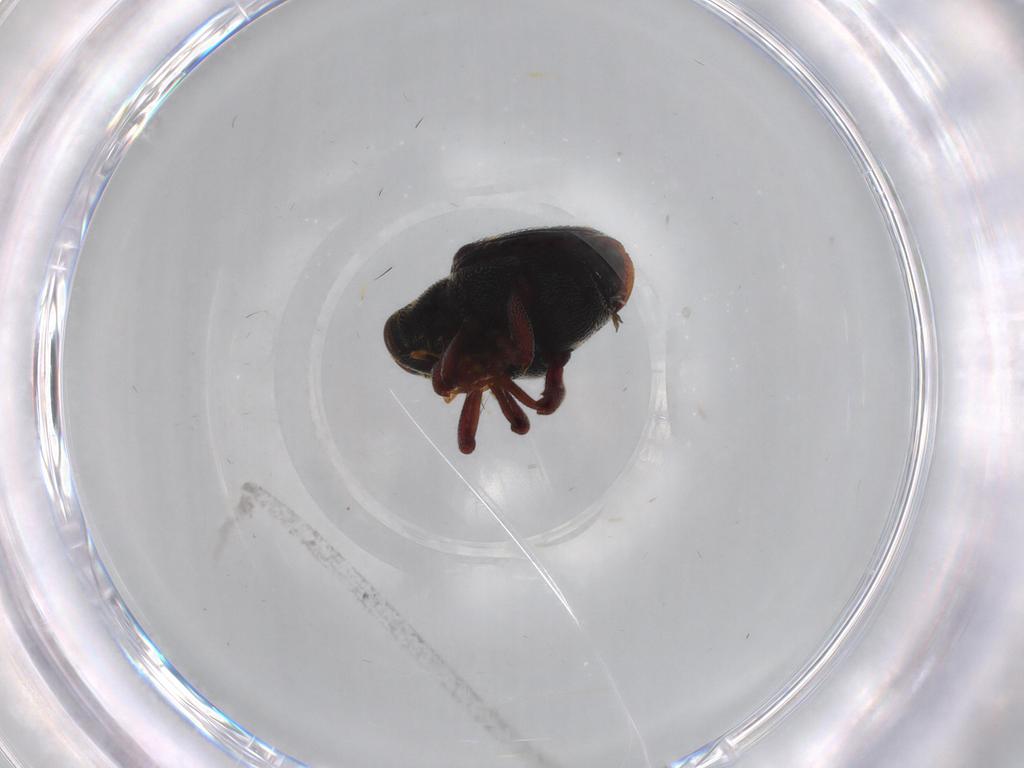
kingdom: Animalia
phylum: Arthropoda
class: Insecta
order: Coleoptera
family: Curculionidae
